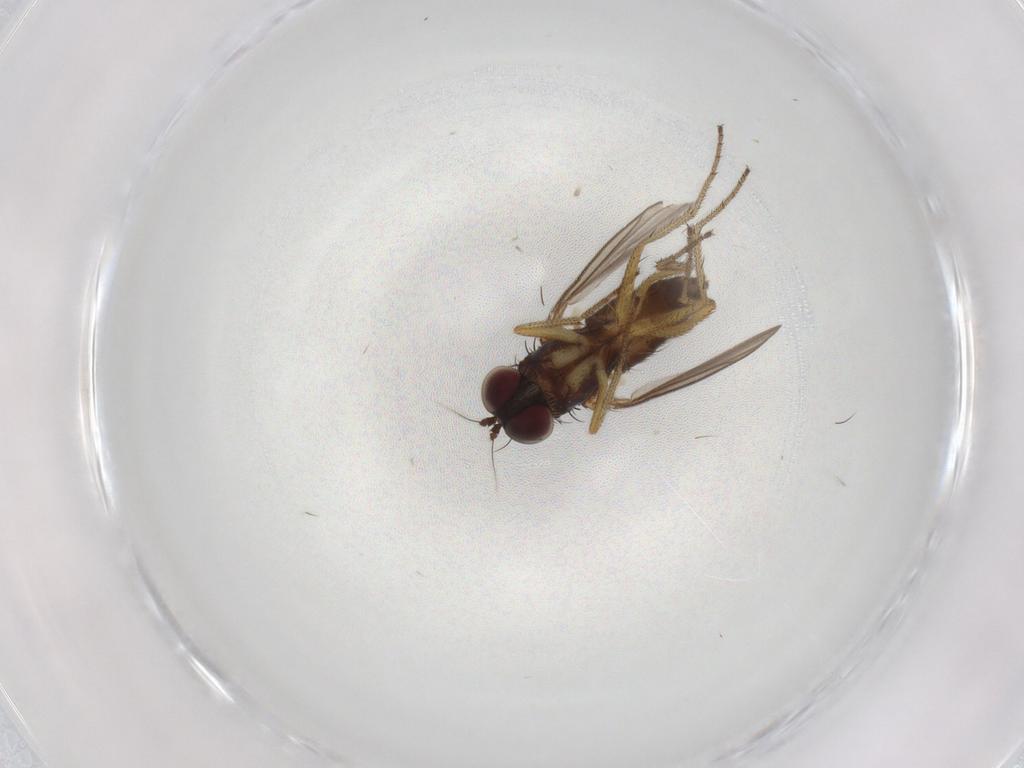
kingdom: Animalia
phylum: Arthropoda
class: Insecta
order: Diptera
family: Dolichopodidae
